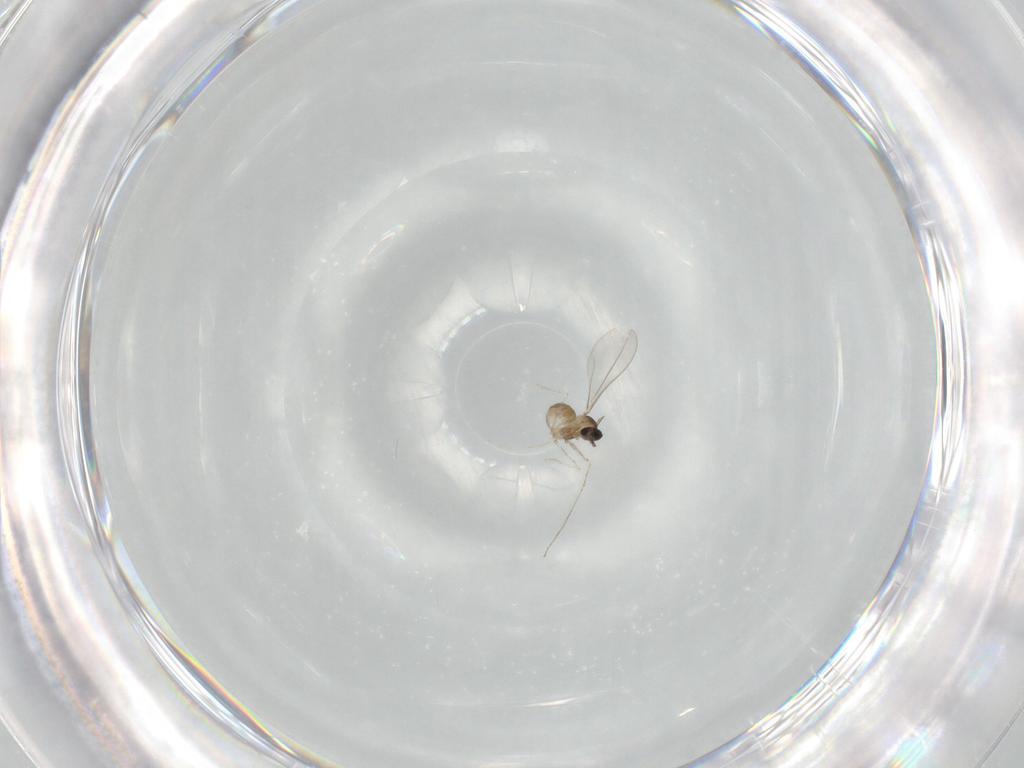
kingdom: Animalia
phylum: Arthropoda
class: Insecta
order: Diptera
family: Cecidomyiidae
